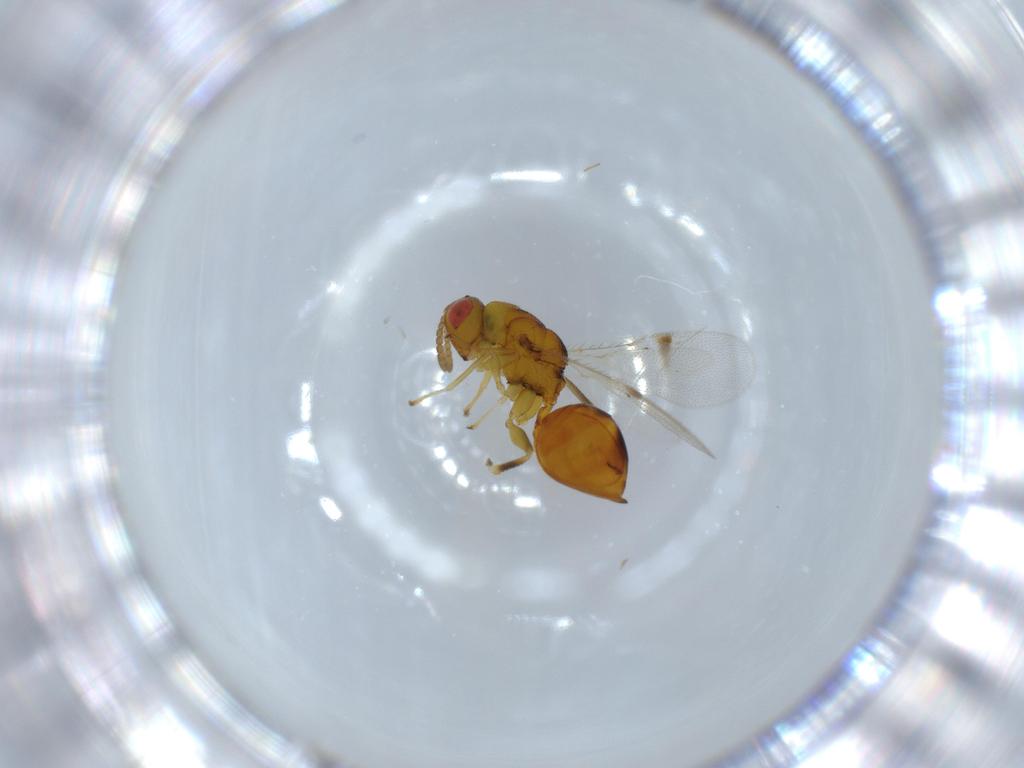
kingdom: Animalia
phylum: Arthropoda
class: Insecta
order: Hymenoptera
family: Eurytomidae
